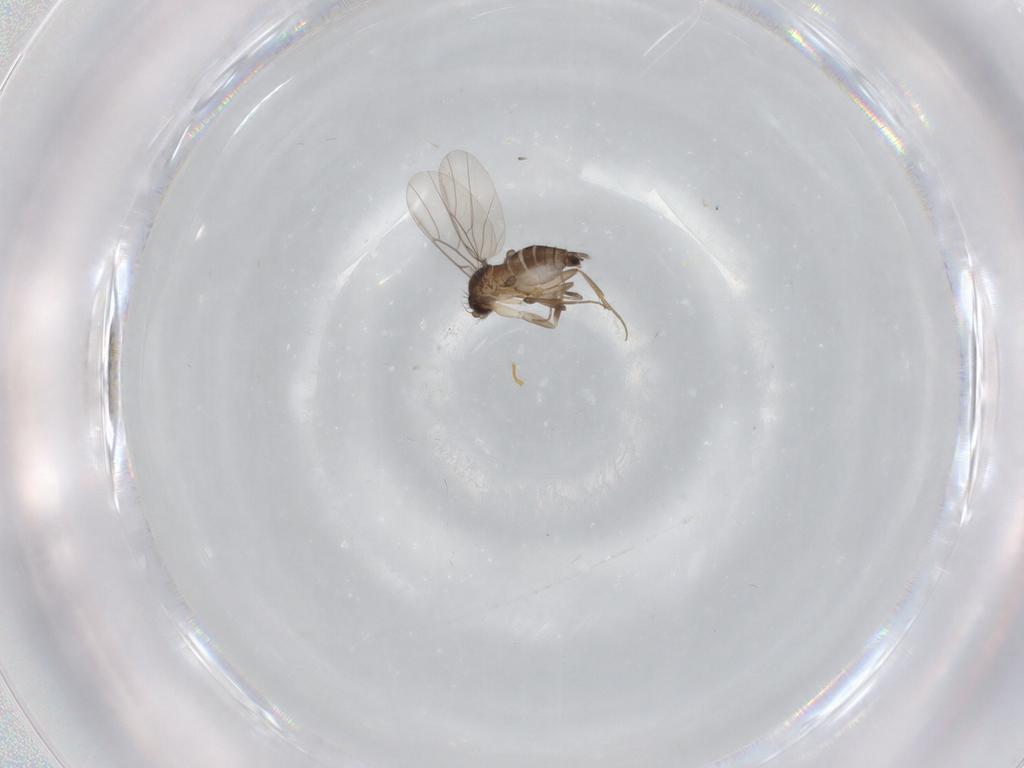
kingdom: Animalia
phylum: Arthropoda
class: Insecta
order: Diptera
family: Phoridae
